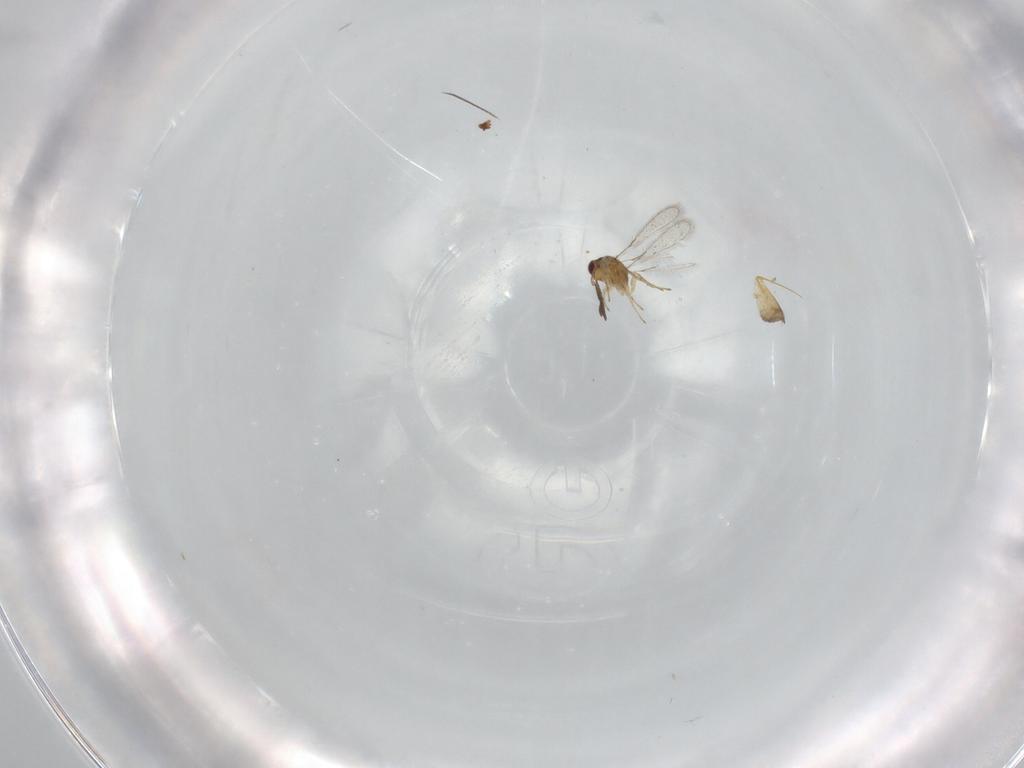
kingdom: Animalia
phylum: Arthropoda
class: Insecta
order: Hymenoptera
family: Mymaridae
